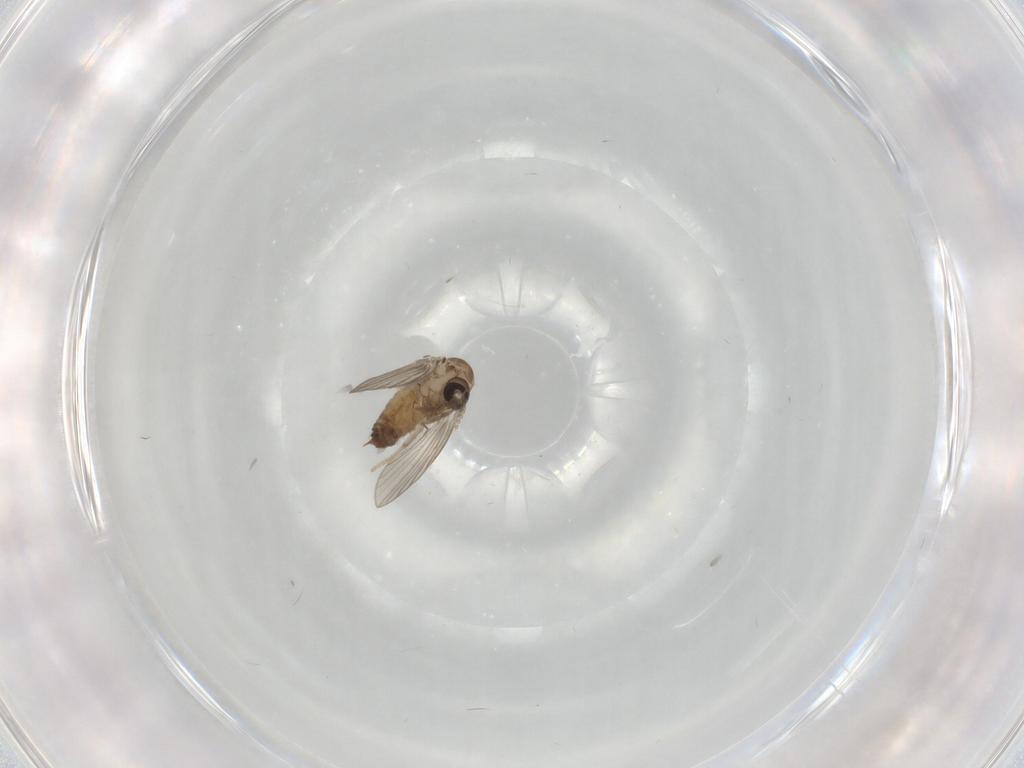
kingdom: Animalia
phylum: Arthropoda
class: Insecta
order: Diptera
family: Psychodidae
